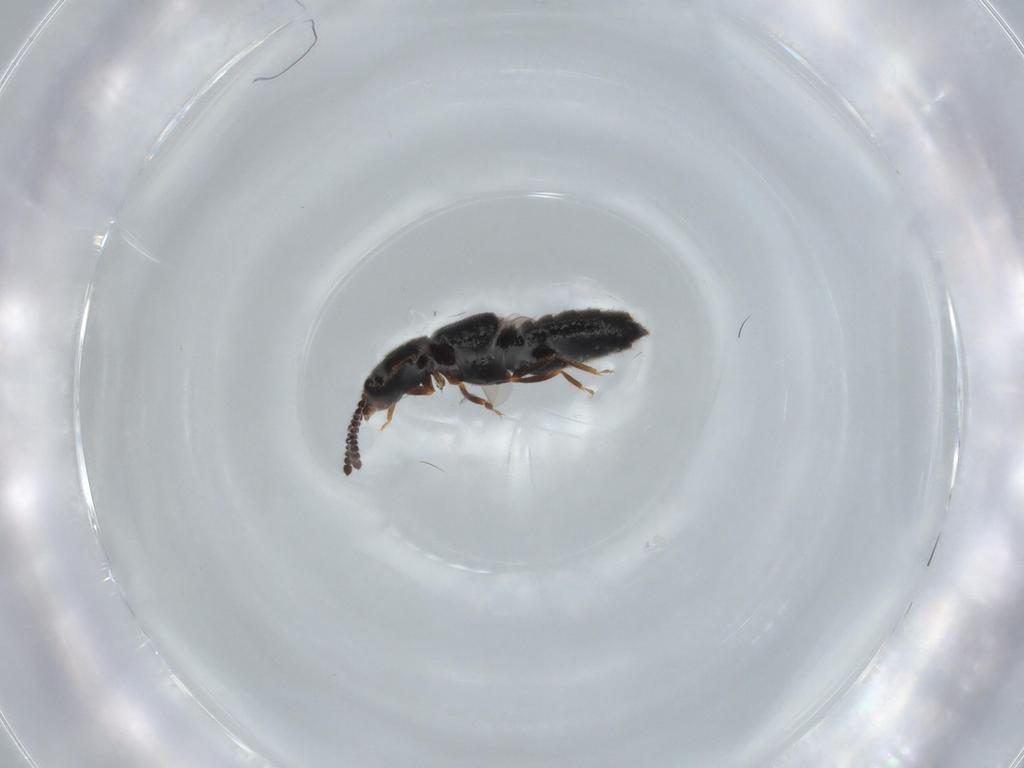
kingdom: Animalia
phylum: Arthropoda
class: Insecta
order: Coleoptera
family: Staphylinidae
